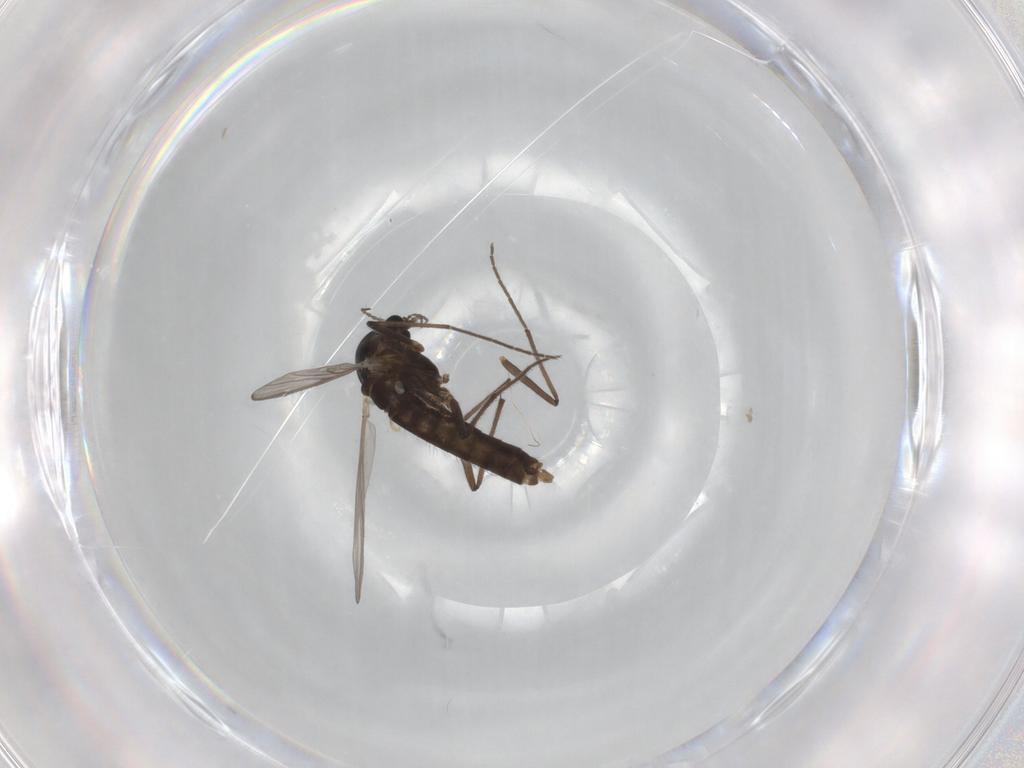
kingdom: Animalia
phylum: Arthropoda
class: Insecta
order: Diptera
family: Chironomidae
